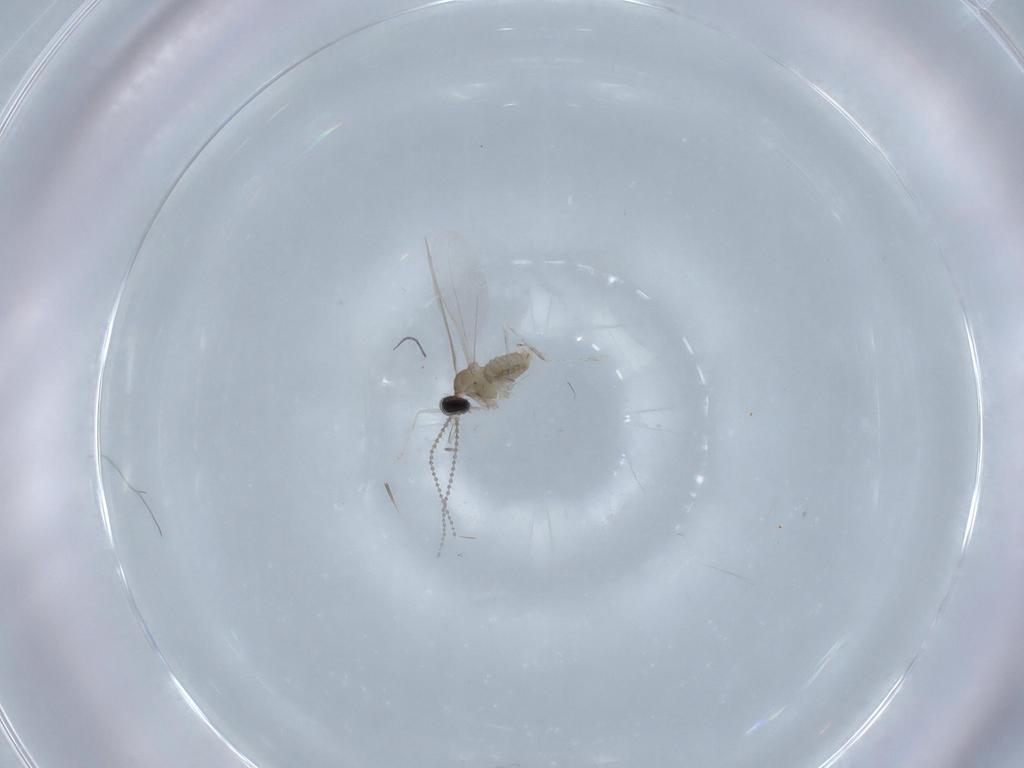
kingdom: Animalia
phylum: Arthropoda
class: Insecta
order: Diptera
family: Cecidomyiidae
